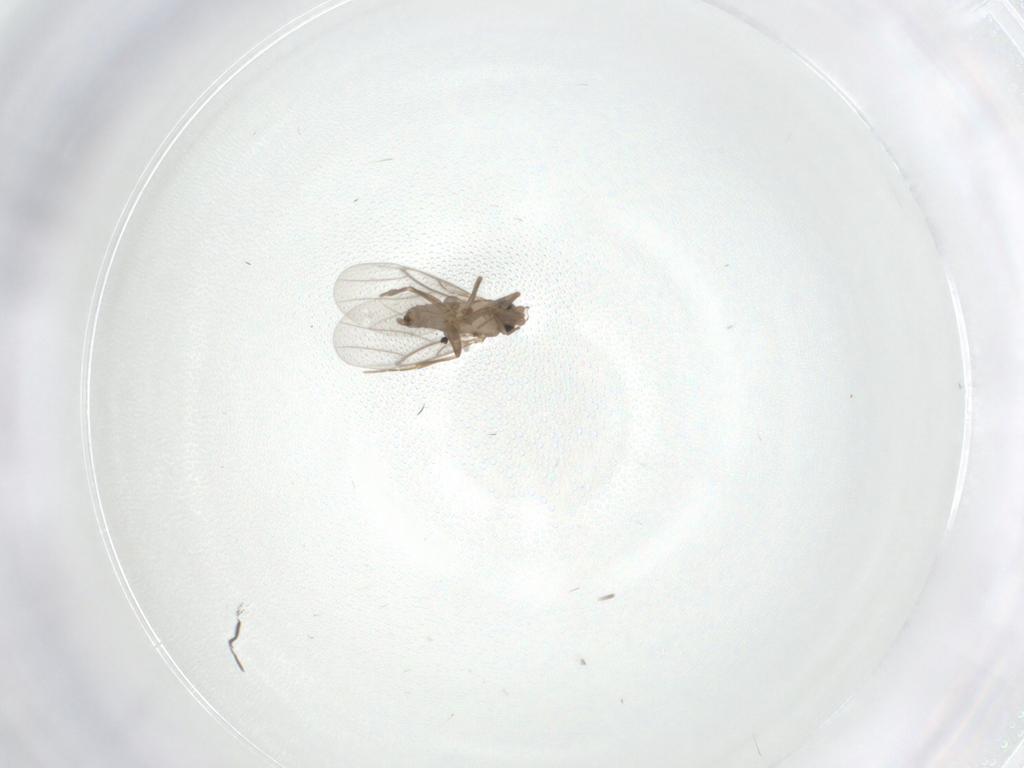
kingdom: Animalia
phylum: Arthropoda
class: Insecta
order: Diptera
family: Stratiomyidae
